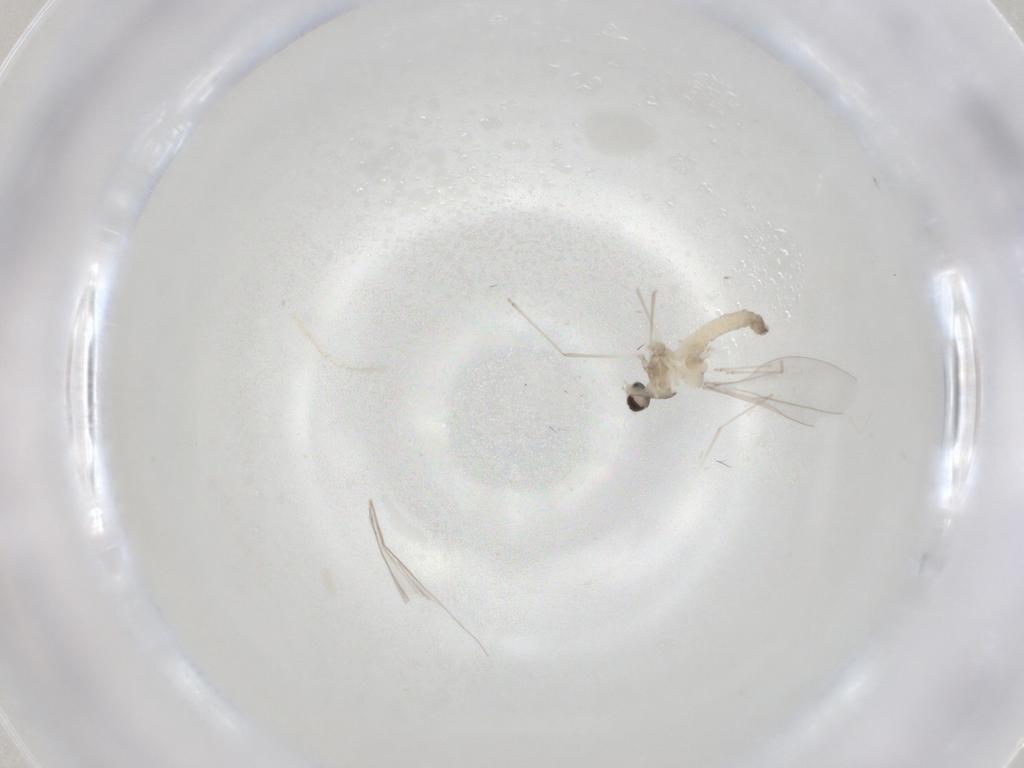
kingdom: Animalia
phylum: Arthropoda
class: Insecta
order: Diptera
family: Cecidomyiidae
